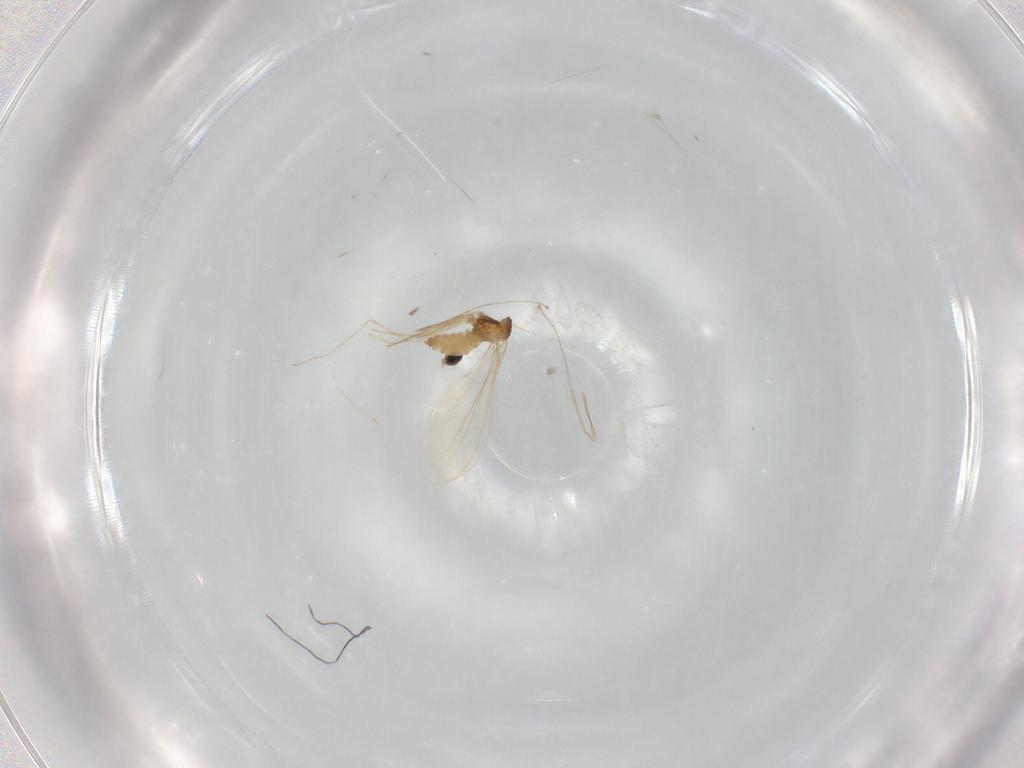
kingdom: Animalia
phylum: Arthropoda
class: Insecta
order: Diptera
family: Cecidomyiidae
